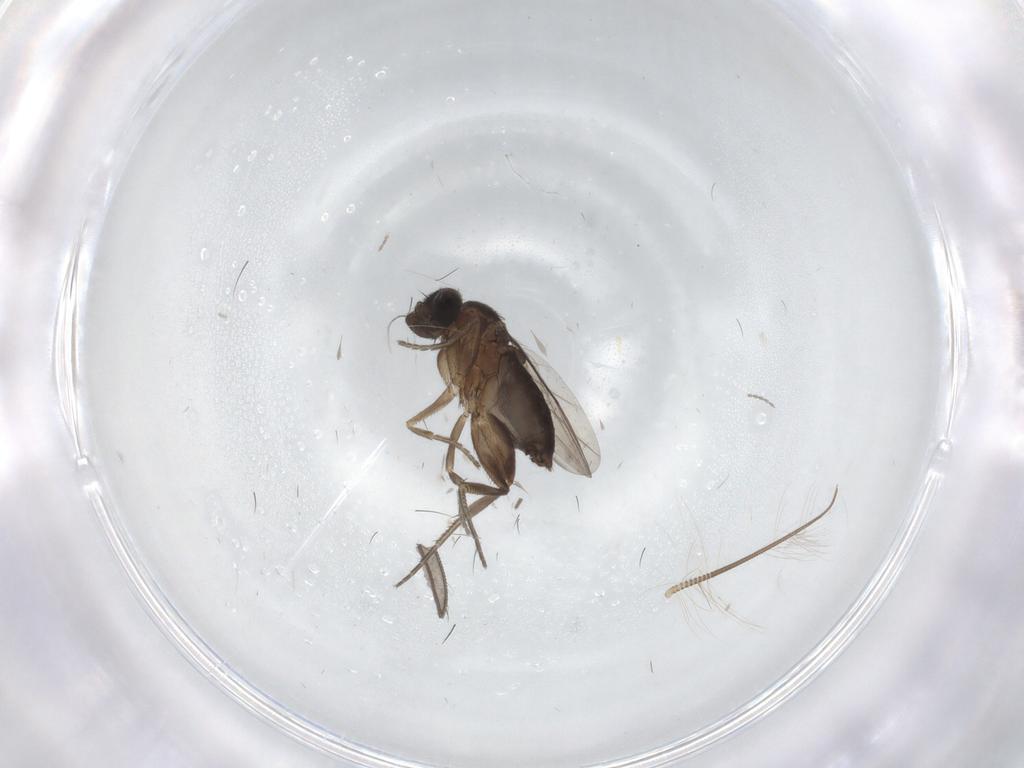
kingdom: Animalia
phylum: Arthropoda
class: Insecta
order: Diptera
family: Phoridae
